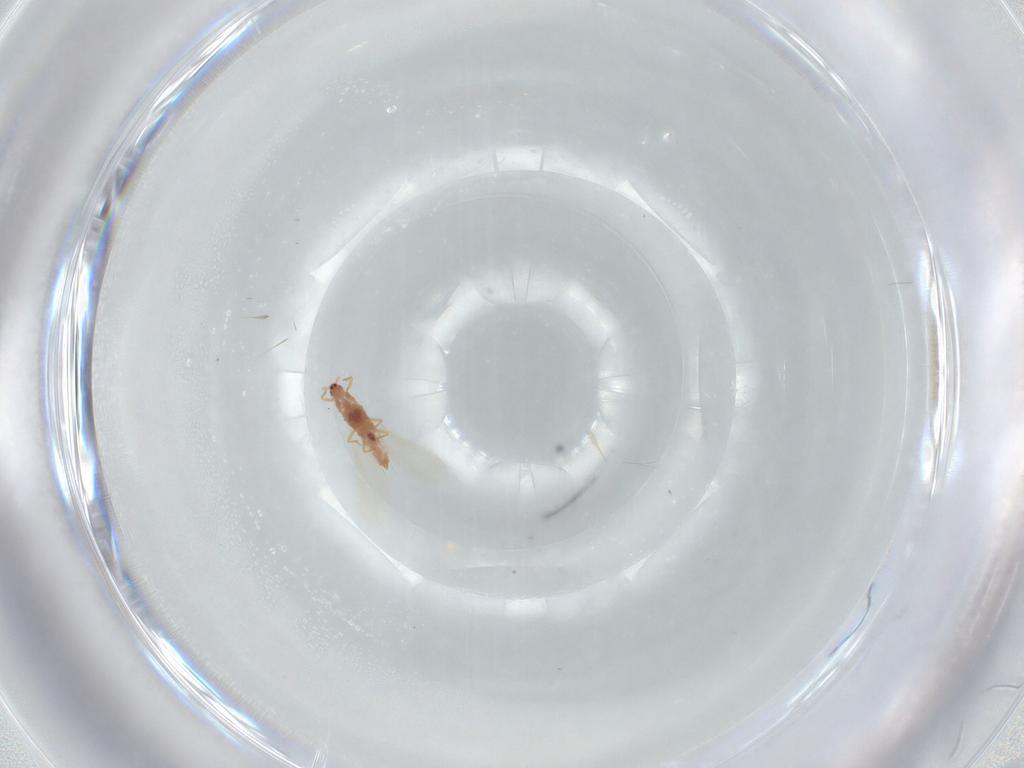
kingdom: Animalia
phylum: Arthropoda
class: Insecta
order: Hemiptera
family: Pseudococcidae
